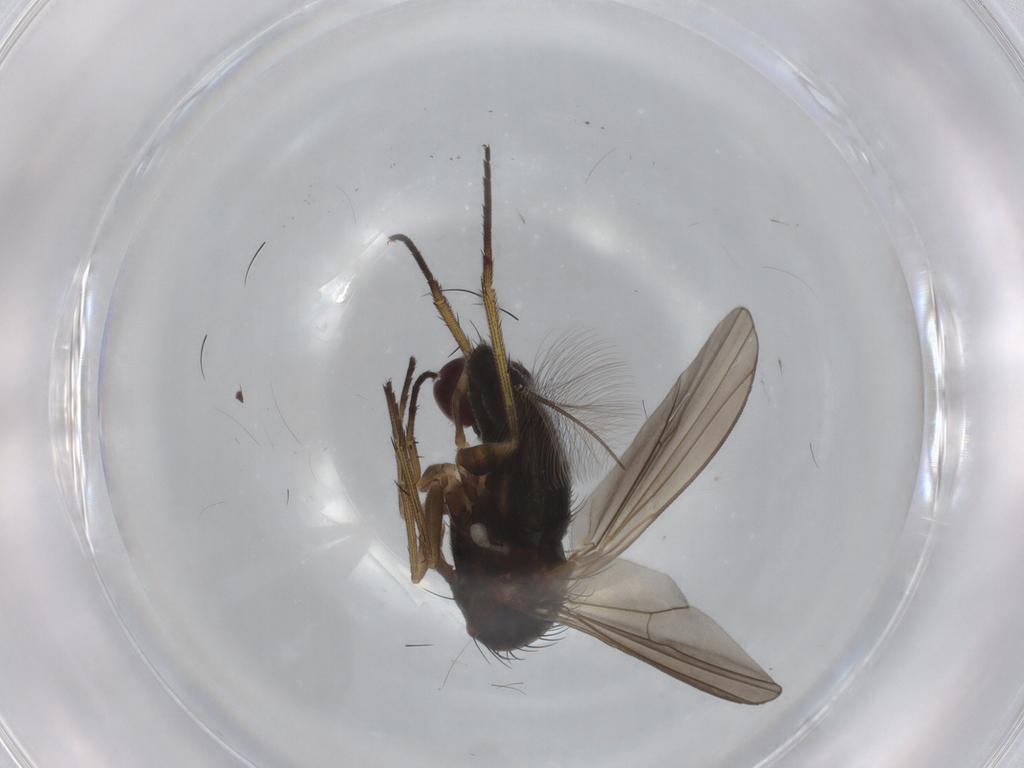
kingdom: Animalia
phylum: Arthropoda
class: Insecta
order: Diptera
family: Dolichopodidae
